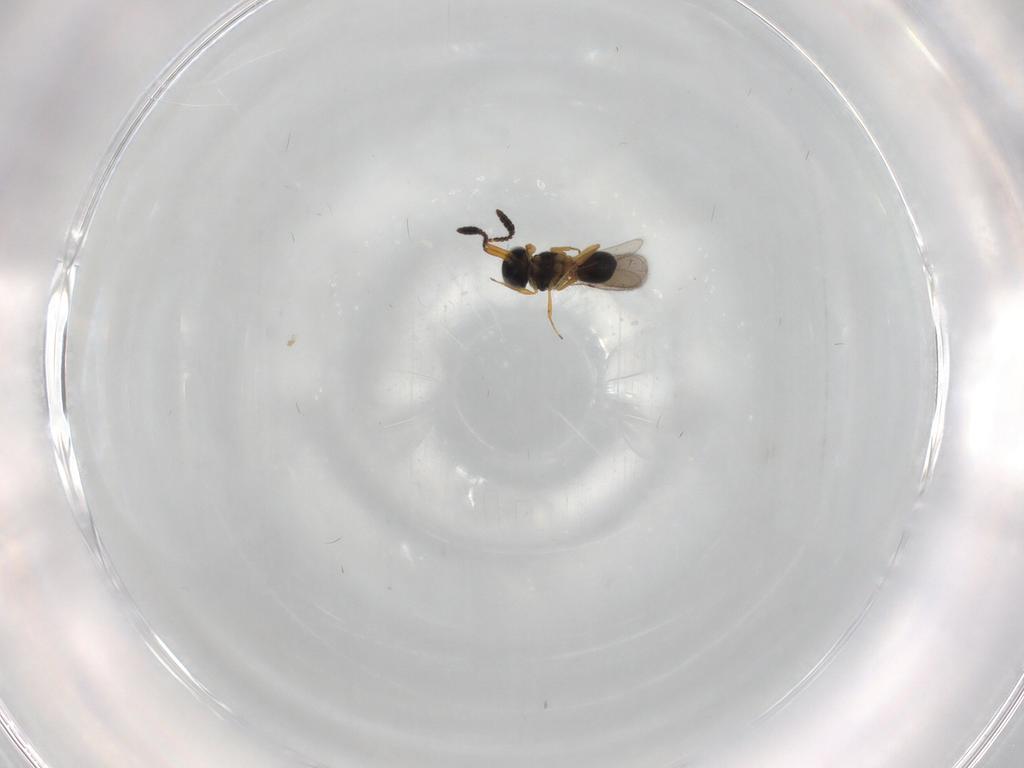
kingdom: Animalia
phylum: Arthropoda
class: Insecta
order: Hymenoptera
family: Scelionidae
